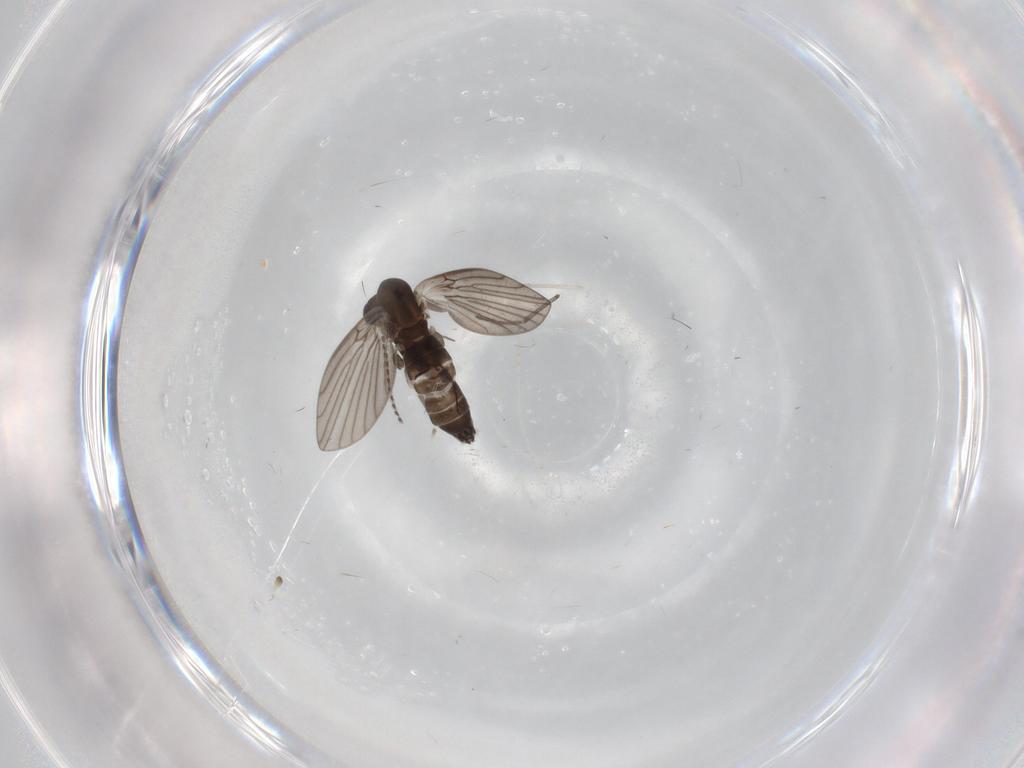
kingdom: Animalia
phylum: Arthropoda
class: Insecta
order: Diptera
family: Cecidomyiidae
